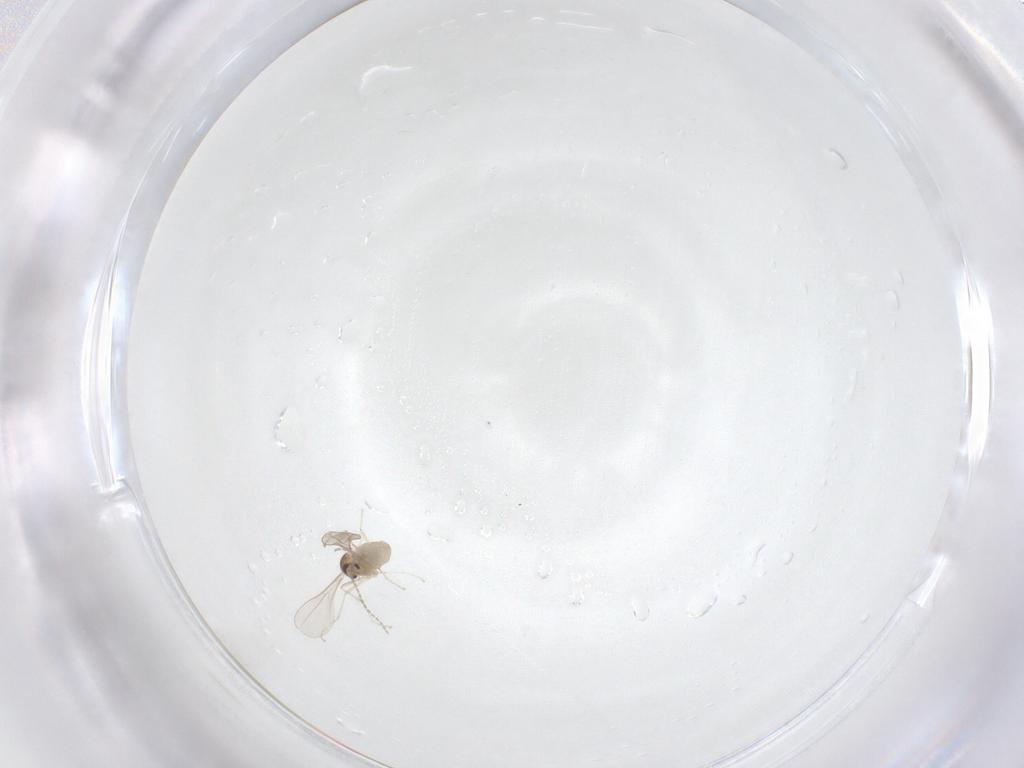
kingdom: Animalia
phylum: Arthropoda
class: Insecta
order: Diptera
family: Cecidomyiidae
